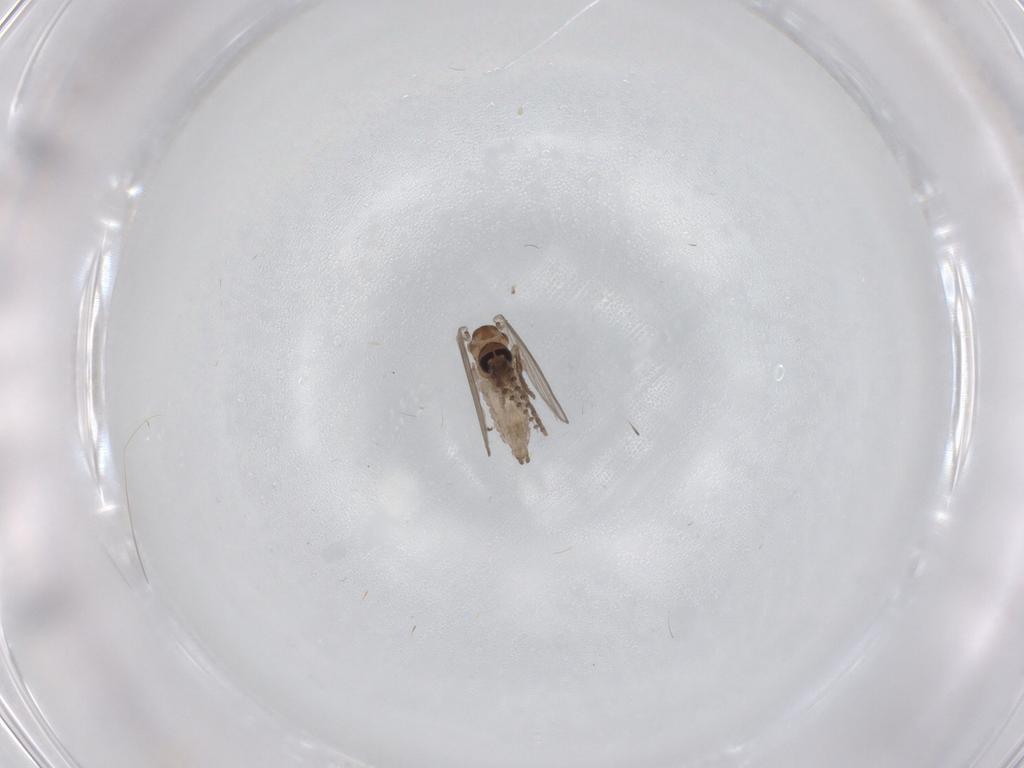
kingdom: Animalia
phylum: Arthropoda
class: Insecta
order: Diptera
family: Psychodidae
